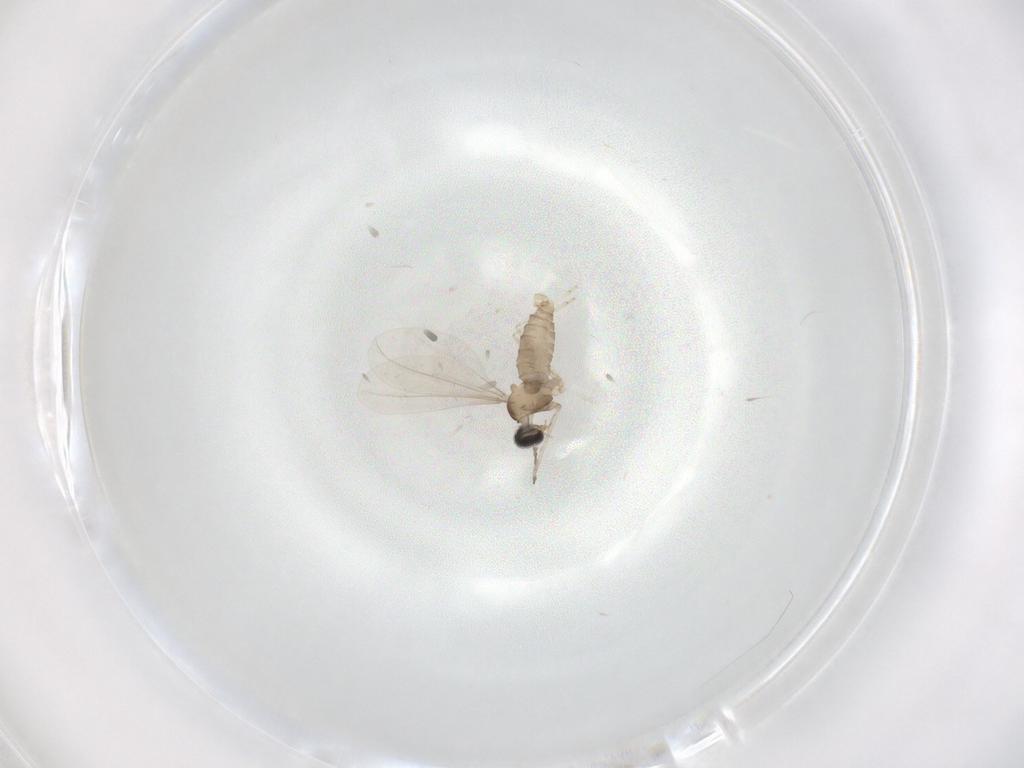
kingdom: Animalia
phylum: Arthropoda
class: Insecta
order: Diptera
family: Cecidomyiidae
